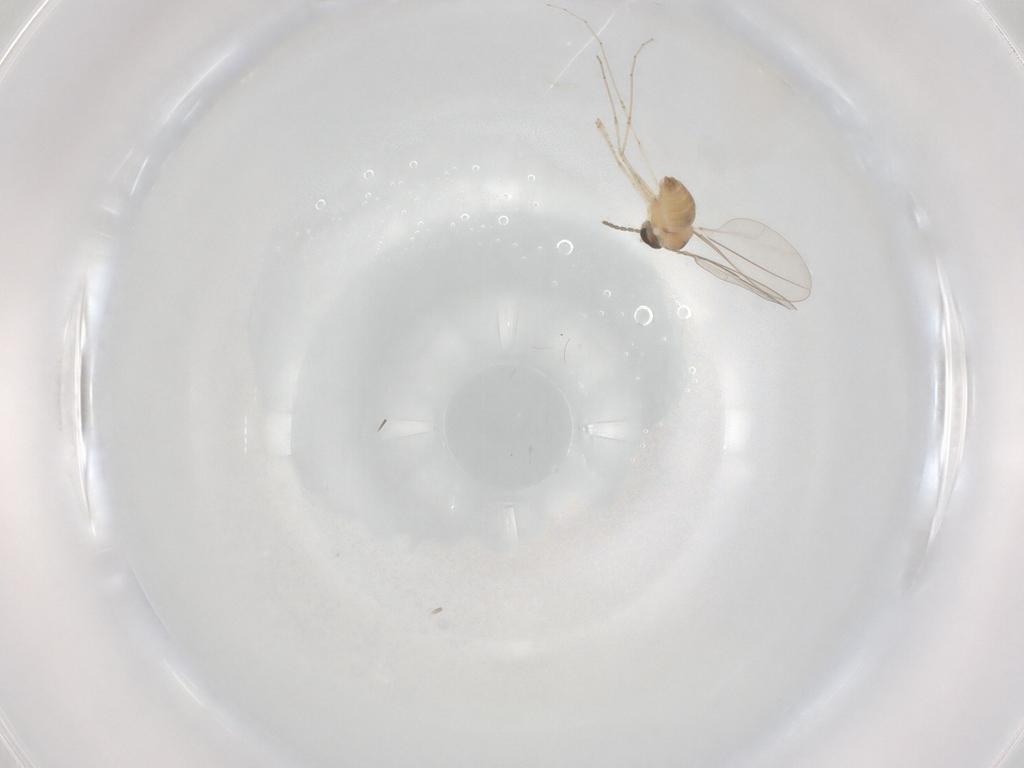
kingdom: Animalia
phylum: Arthropoda
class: Insecta
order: Diptera
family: Cecidomyiidae
